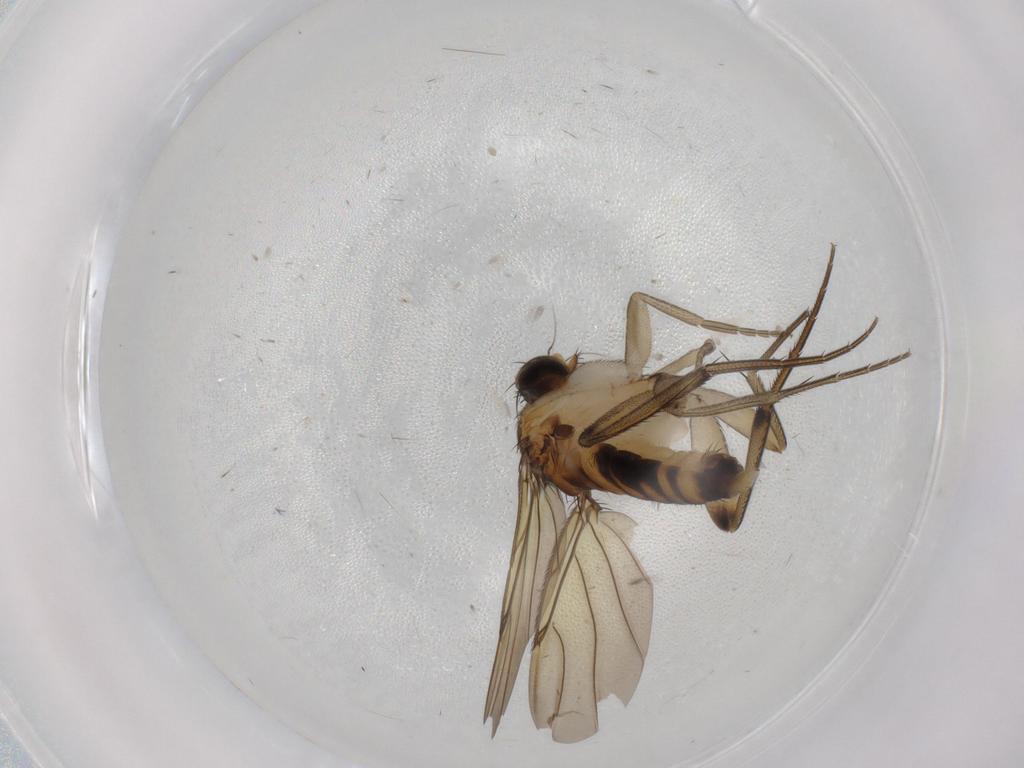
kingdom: Animalia
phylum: Arthropoda
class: Insecta
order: Diptera
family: Phoridae
